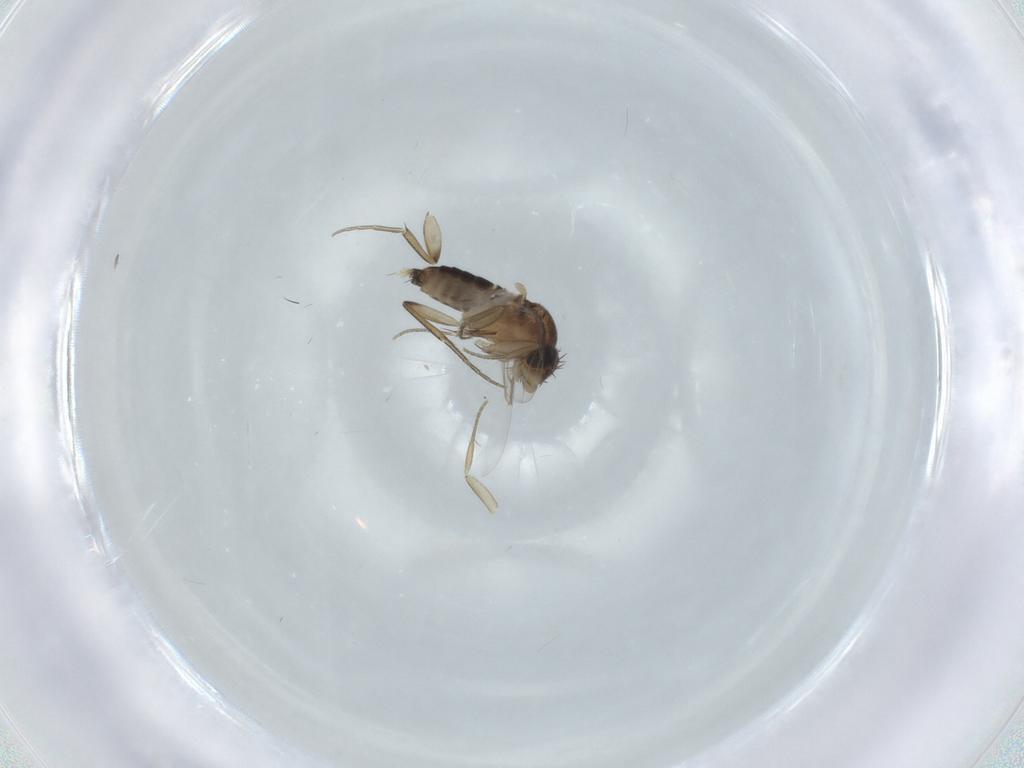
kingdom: Animalia
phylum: Arthropoda
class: Insecta
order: Diptera
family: Phoridae
